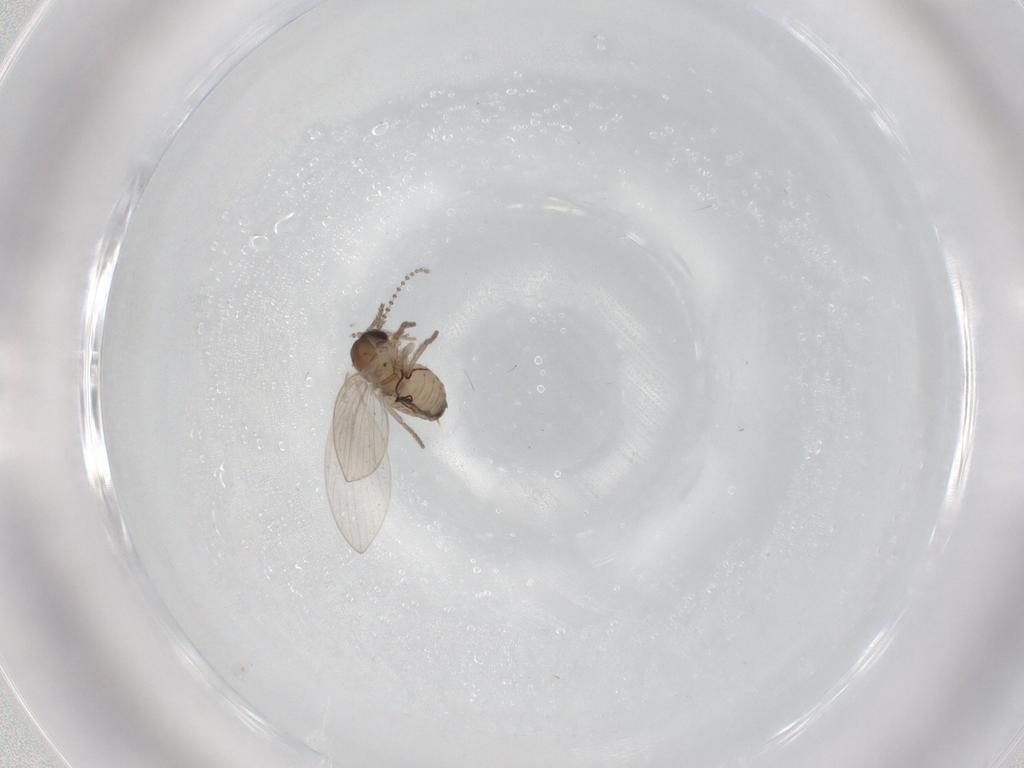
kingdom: Animalia
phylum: Arthropoda
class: Insecta
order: Diptera
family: Psychodidae
